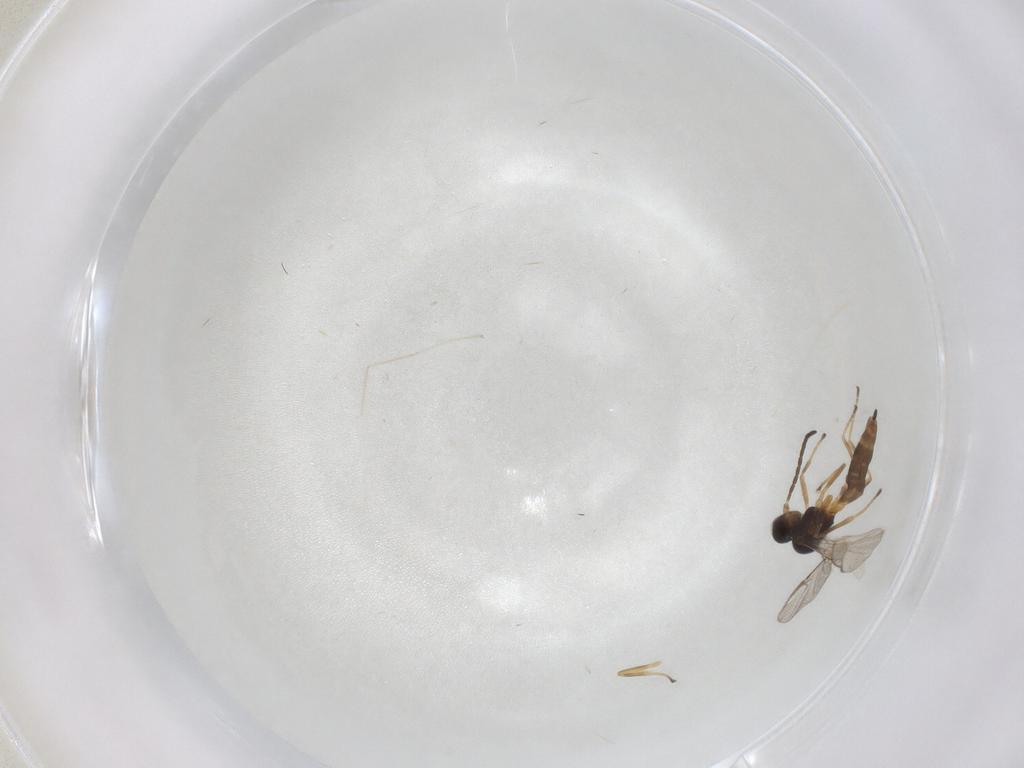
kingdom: Animalia
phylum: Arthropoda
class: Insecta
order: Hymenoptera
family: Braconidae
